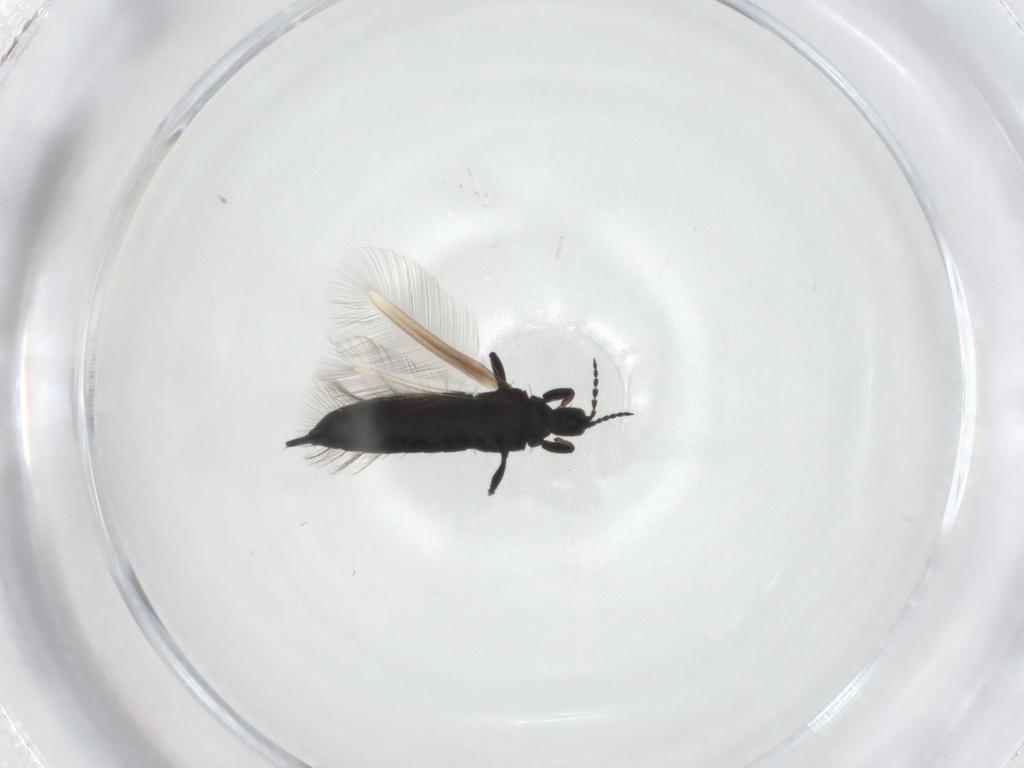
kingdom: Animalia
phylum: Arthropoda
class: Insecta
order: Thysanoptera
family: Phlaeothripidae
